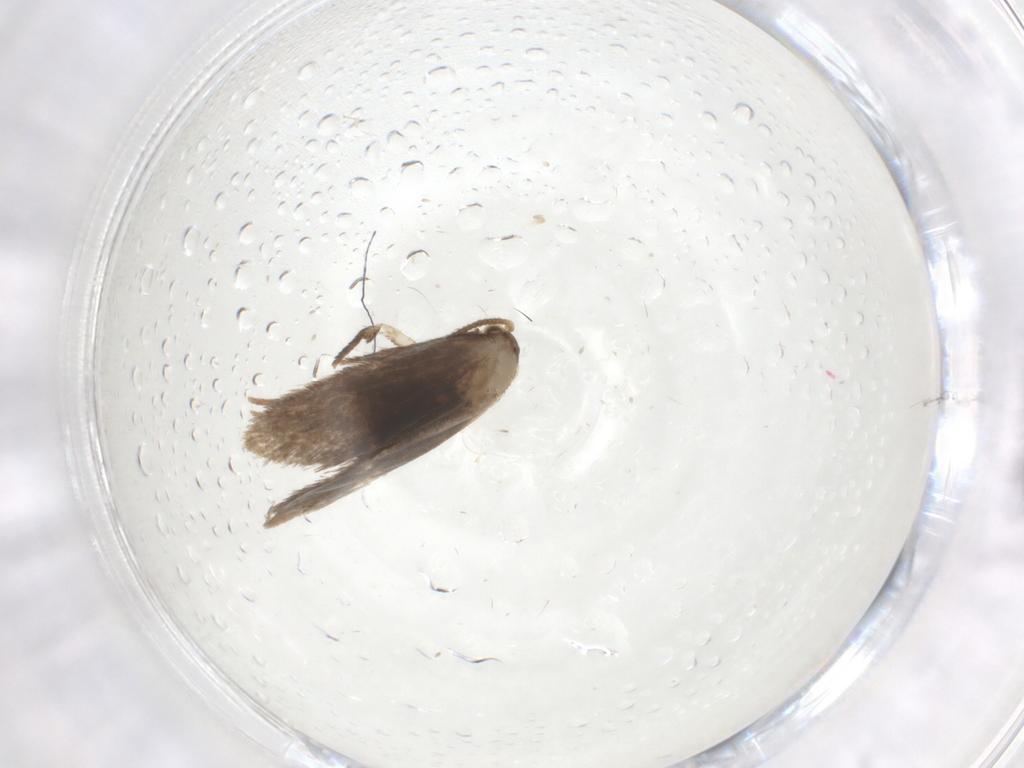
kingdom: Animalia
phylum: Arthropoda
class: Insecta
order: Lepidoptera
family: Dryadaulidae
